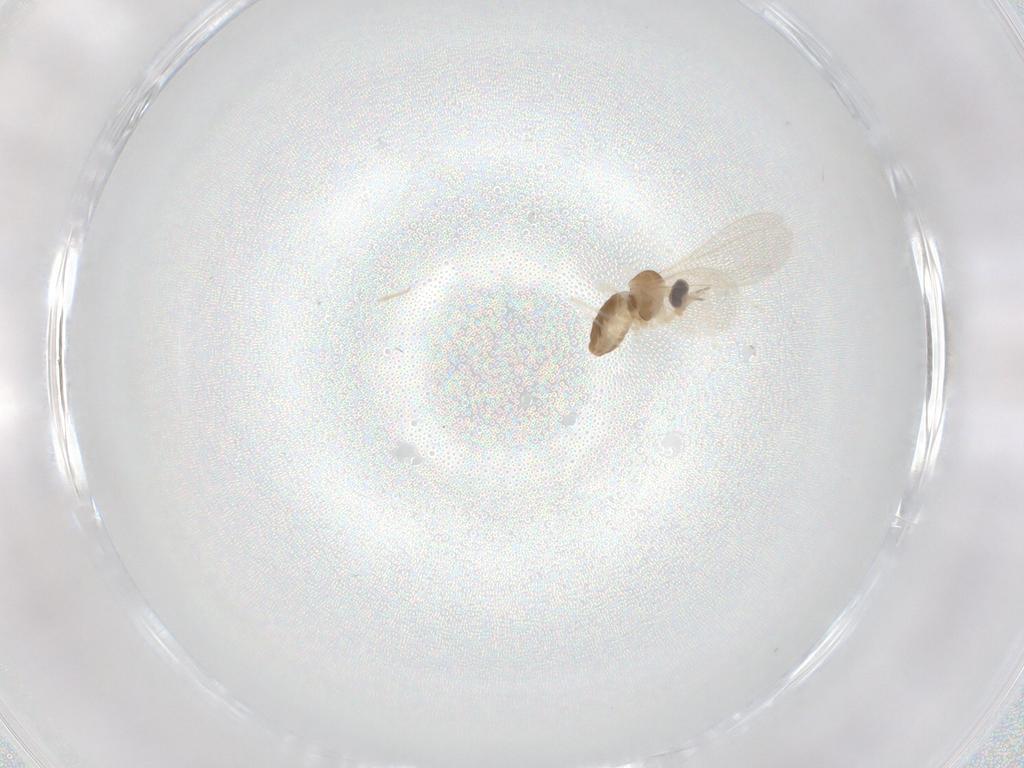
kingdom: Animalia
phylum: Arthropoda
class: Insecta
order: Diptera
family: Cecidomyiidae
